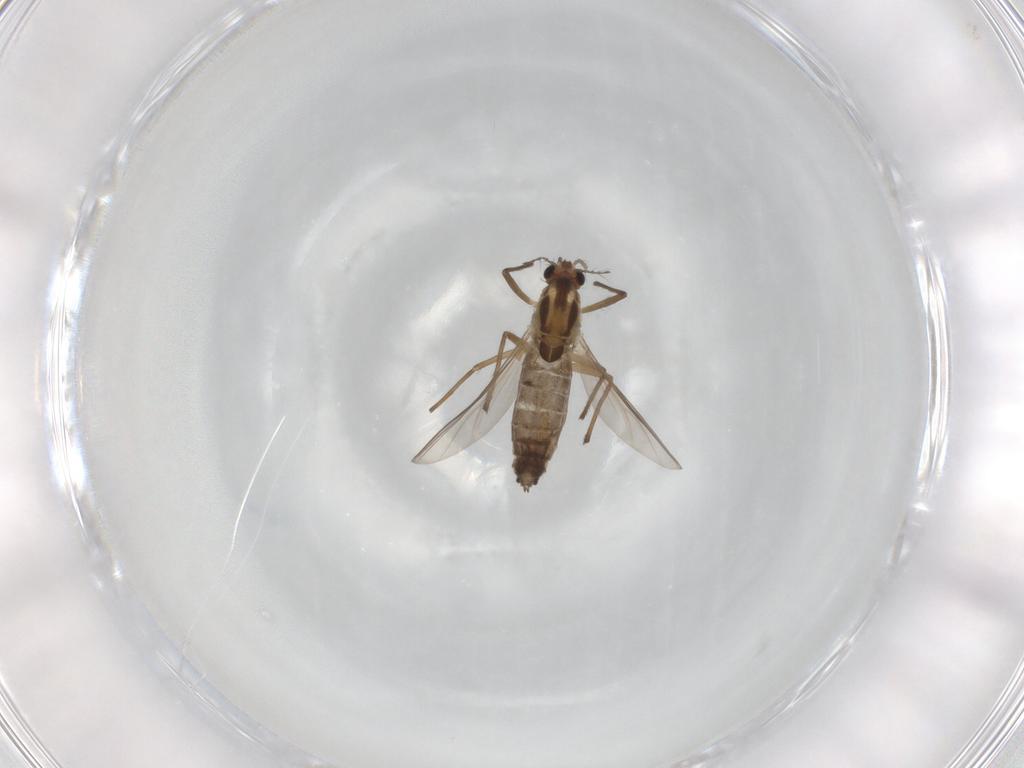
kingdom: Animalia
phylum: Arthropoda
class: Insecta
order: Diptera
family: Chironomidae
